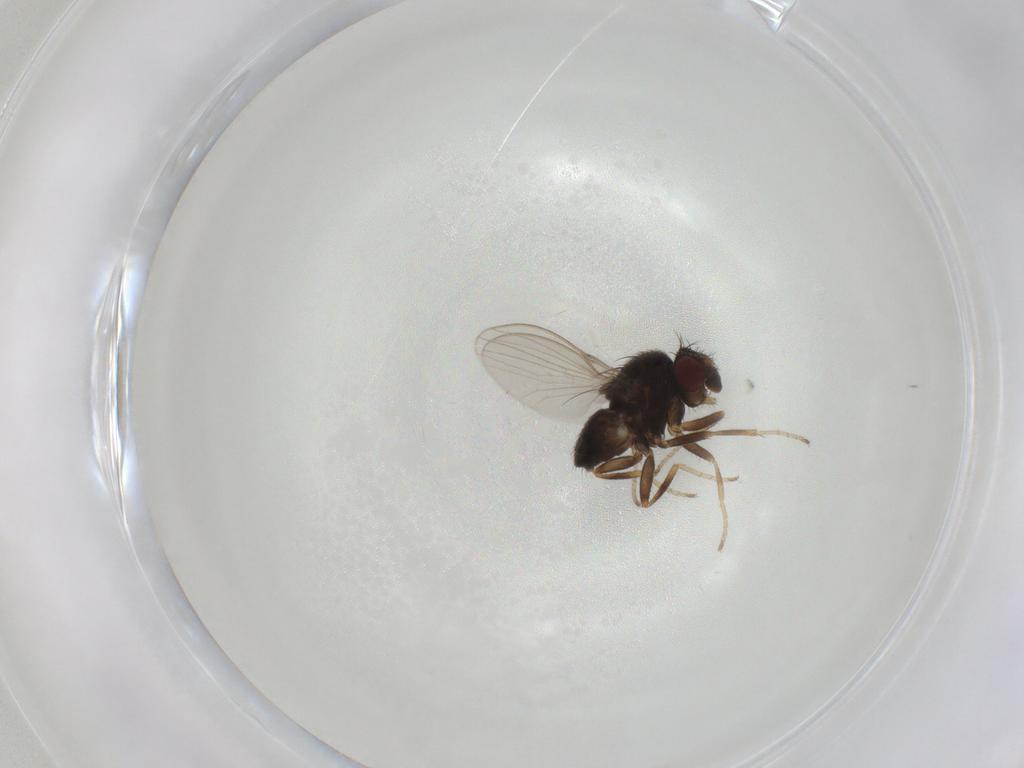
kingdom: Animalia
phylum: Arthropoda
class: Insecta
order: Diptera
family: Milichiidae
